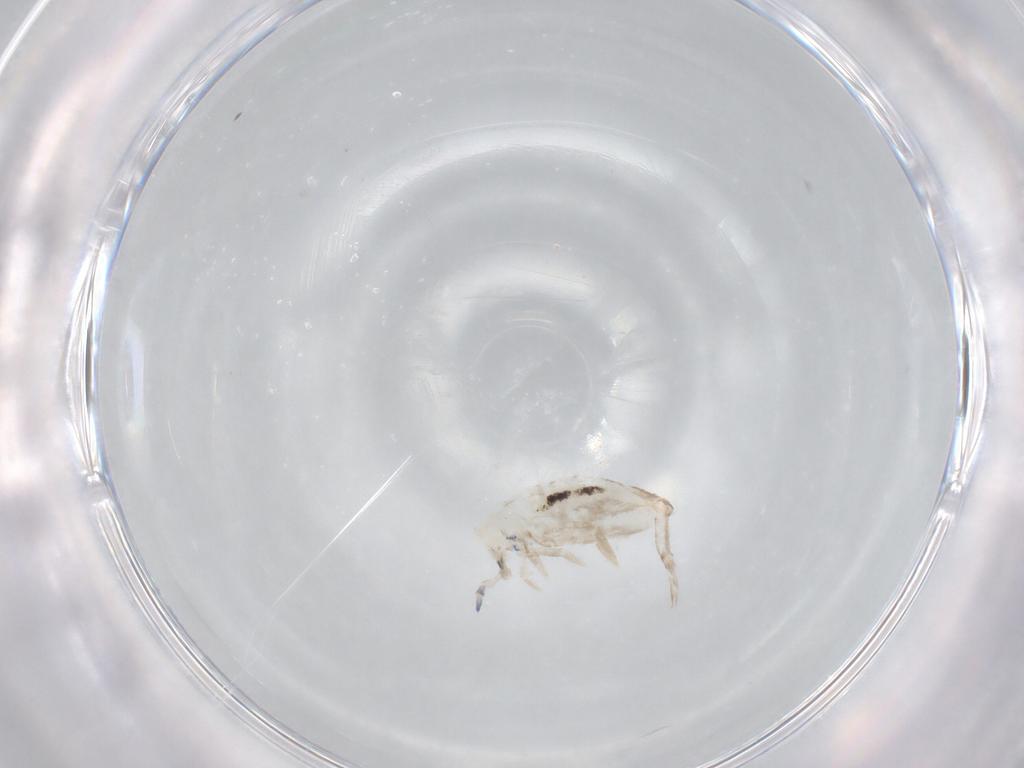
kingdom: Animalia
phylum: Arthropoda
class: Collembola
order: Entomobryomorpha
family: Entomobryidae
